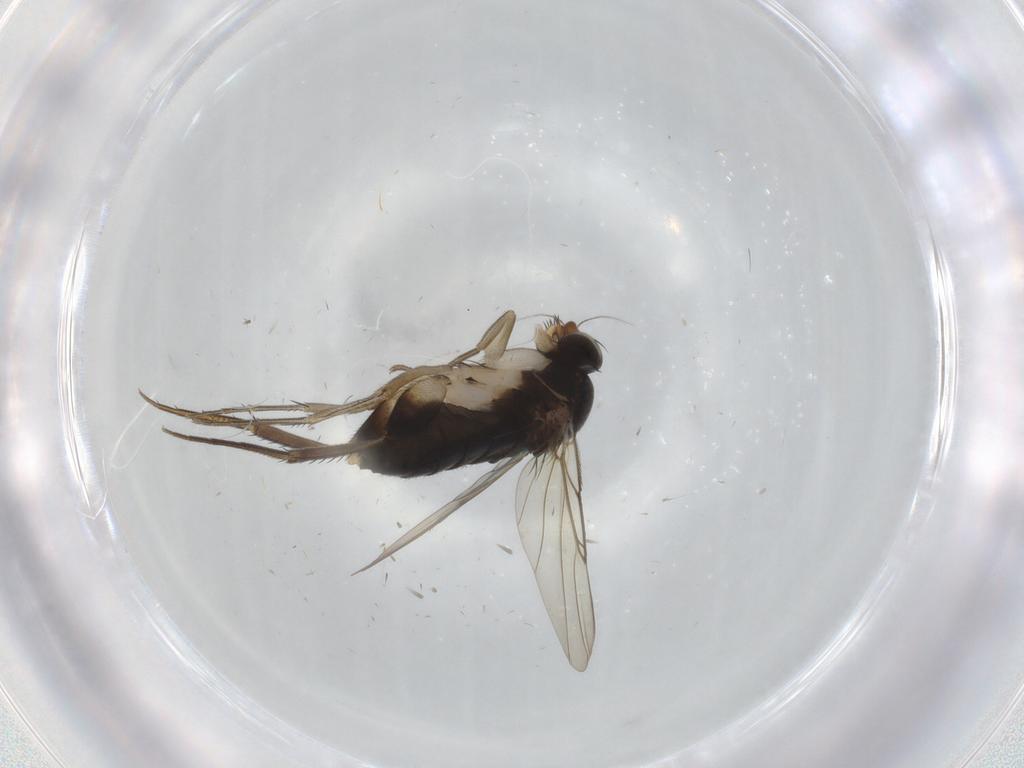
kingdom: Animalia
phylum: Arthropoda
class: Insecta
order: Diptera
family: Phoridae
